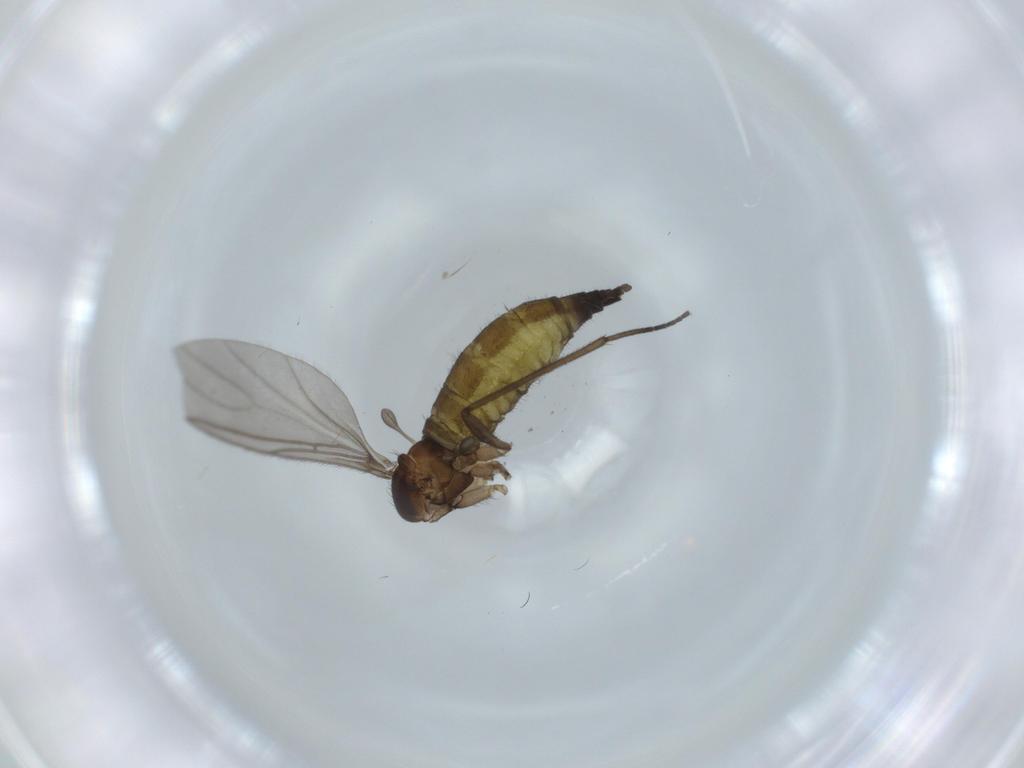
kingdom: Animalia
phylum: Arthropoda
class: Insecta
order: Diptera
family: Sciaridae
